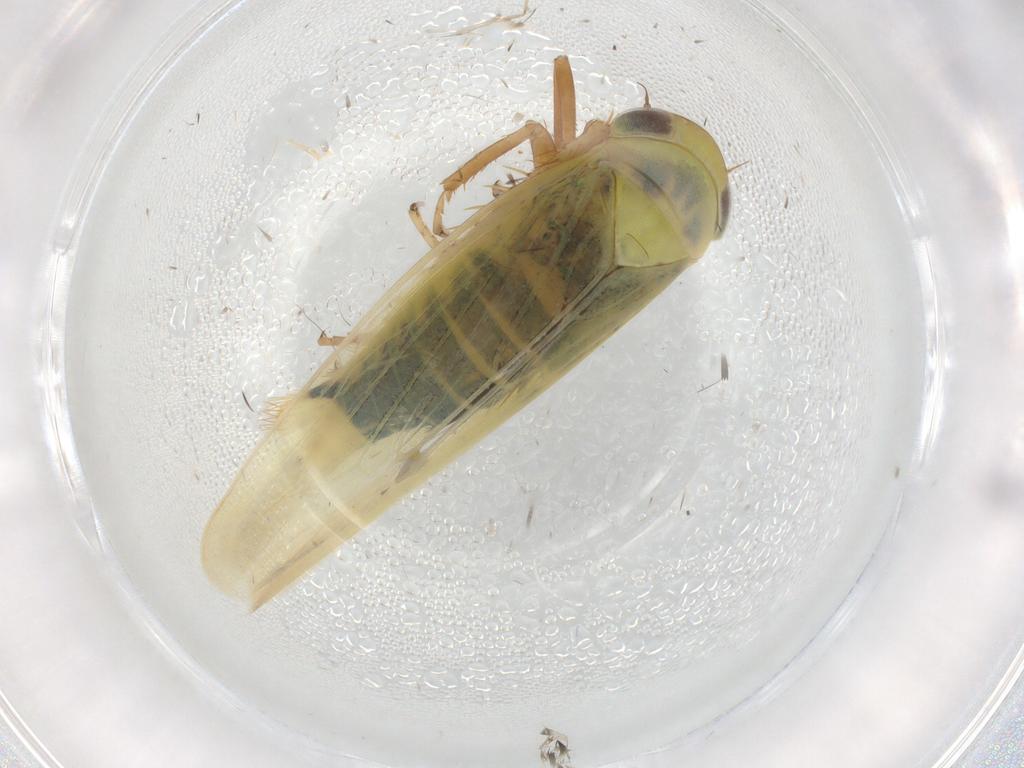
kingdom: Animalia
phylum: Arthropoda
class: Insecta
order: Hemiptera
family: Cicadellidae
